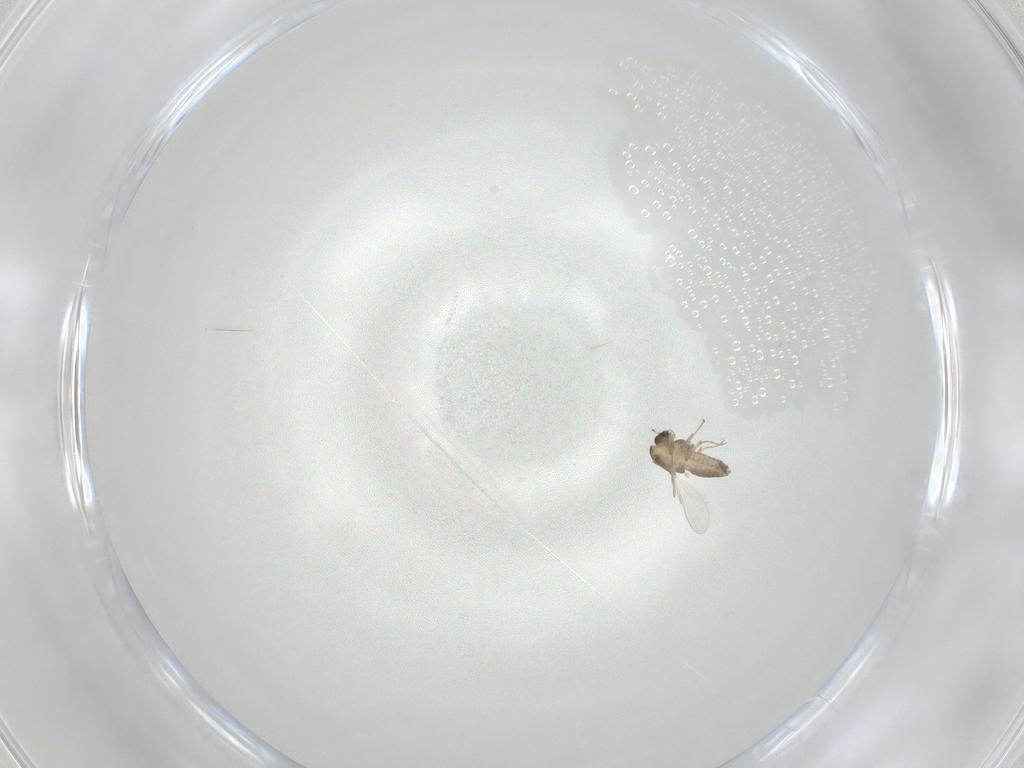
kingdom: Animalia
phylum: Arthropoda
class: Insecta
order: Diptera
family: Chironomidae
